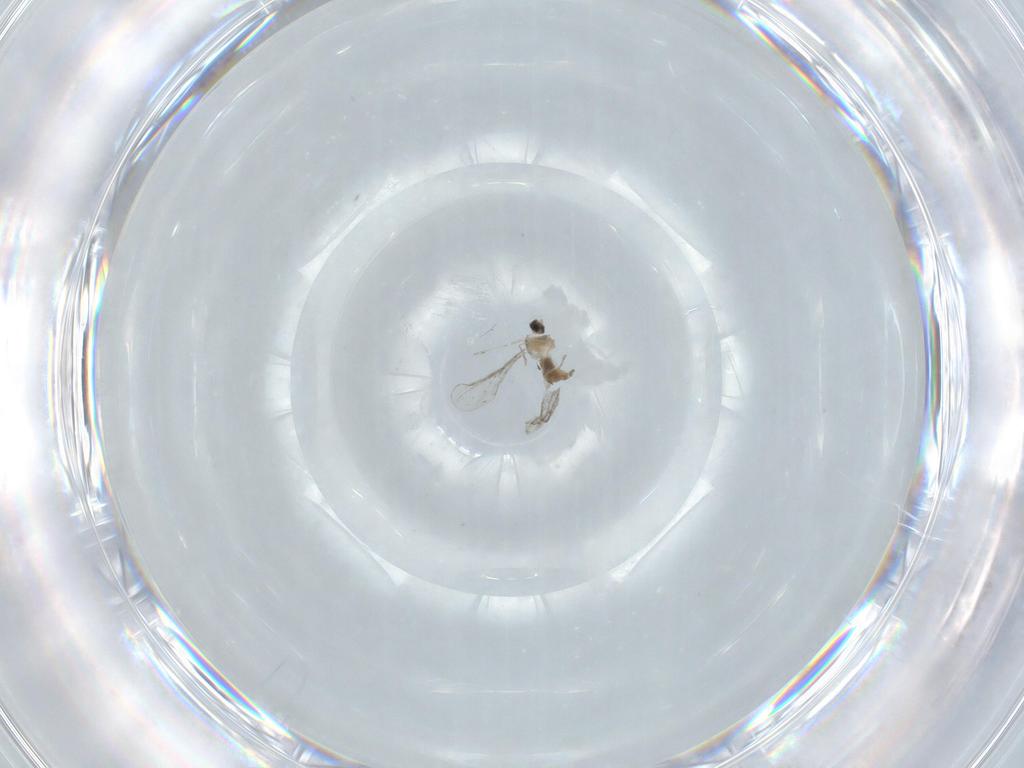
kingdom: Animalia
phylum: Arthropoda
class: Insecta
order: Diptera
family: Cecidomyiidae
